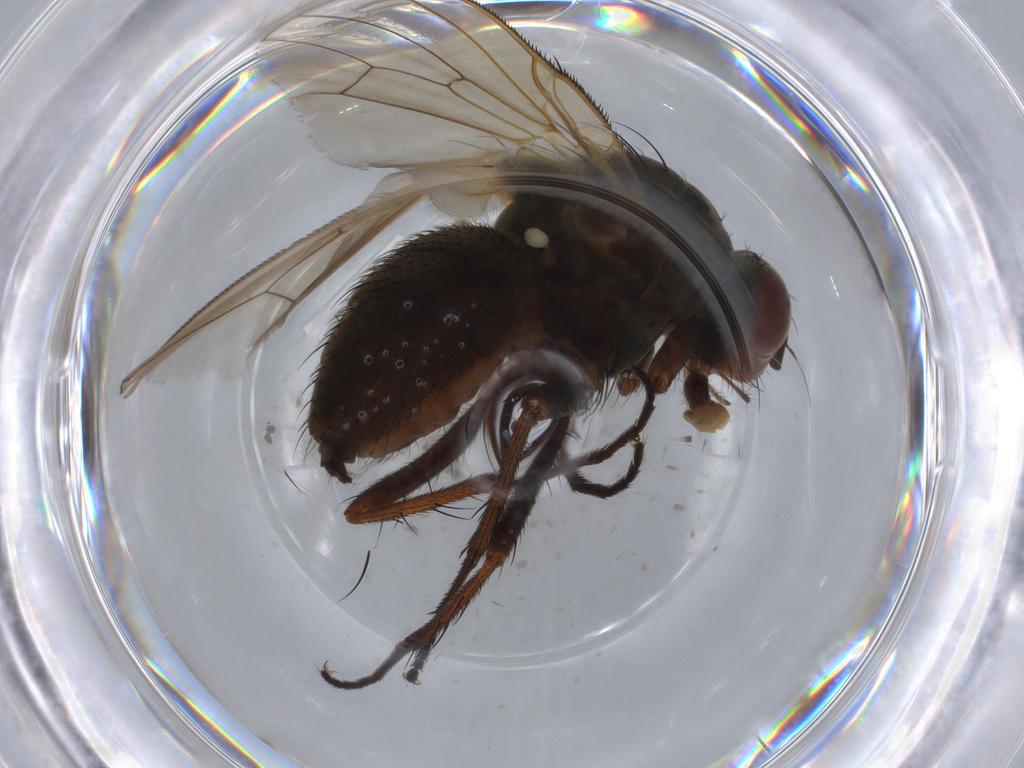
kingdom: Animalia
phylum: Arthropoda
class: Insecta
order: Diptera
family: Anthomyiidae
